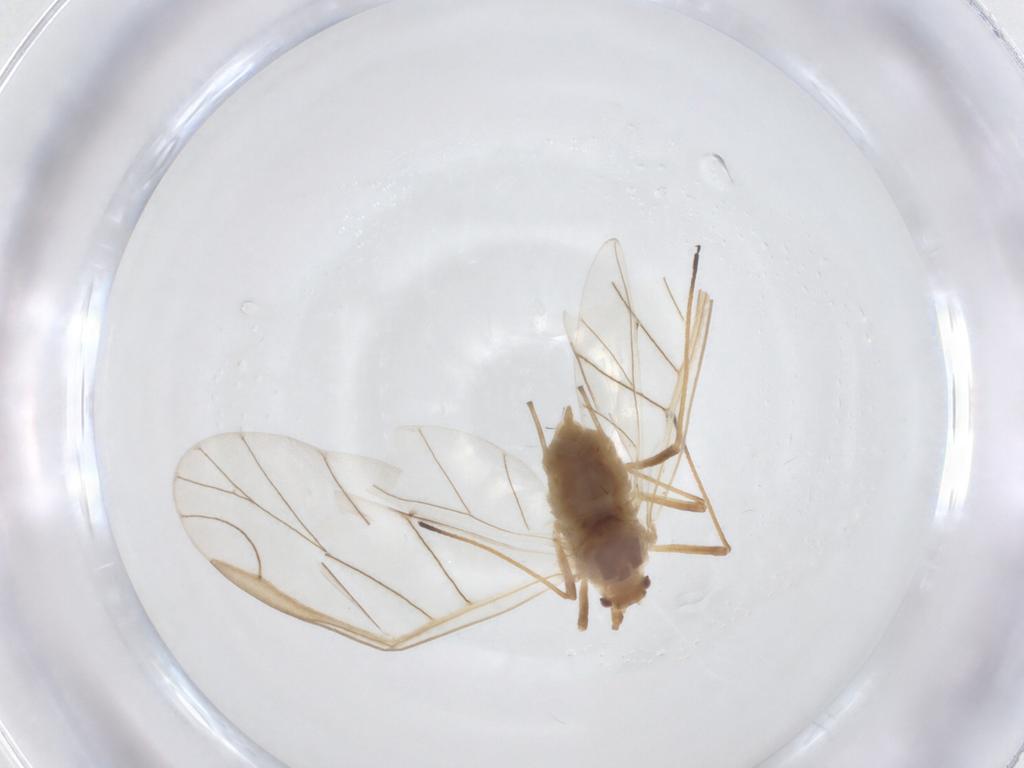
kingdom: Animalia
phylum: Arthropoda
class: Insecta
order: Hemiptera
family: Aphididae
